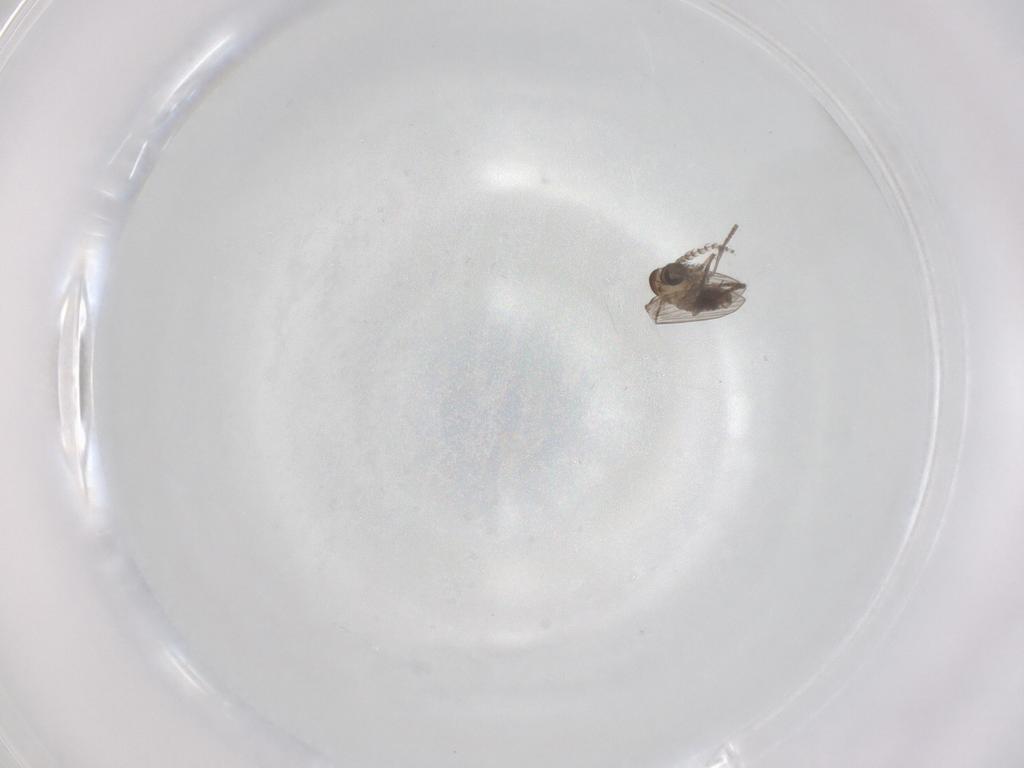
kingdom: Animalia
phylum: Arthropoda
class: Insecta
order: Diptera
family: Psychodidae
